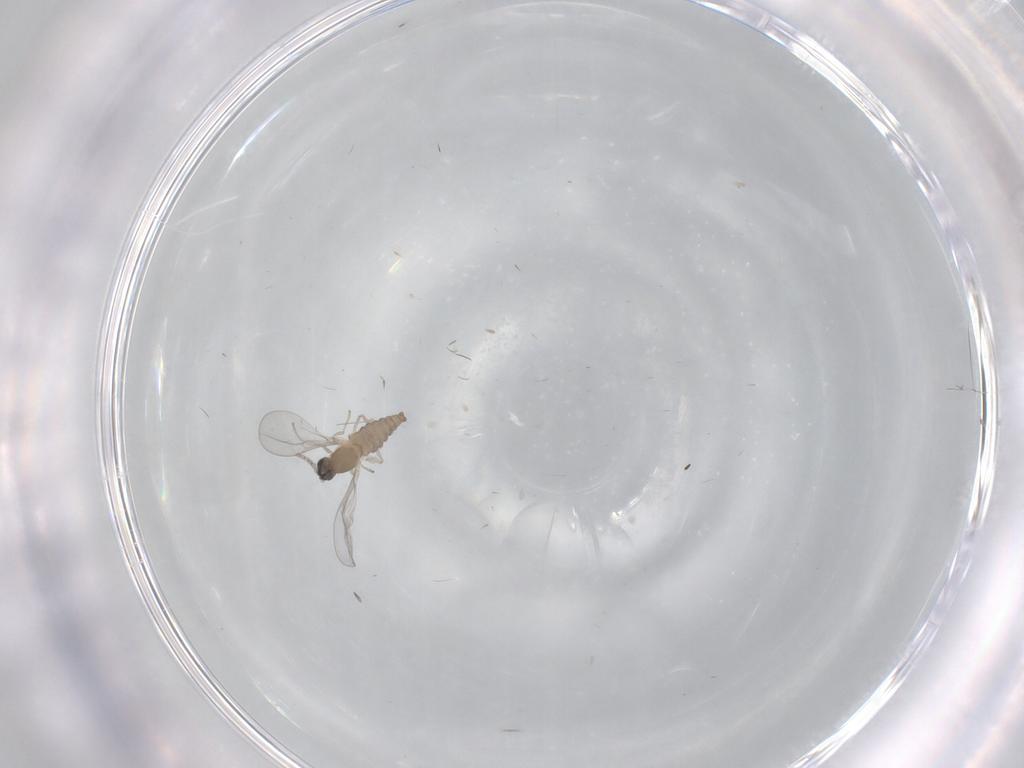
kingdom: Animalia
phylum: Arthropoda
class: Insecta
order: Diptera
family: Cecidomyiidae
